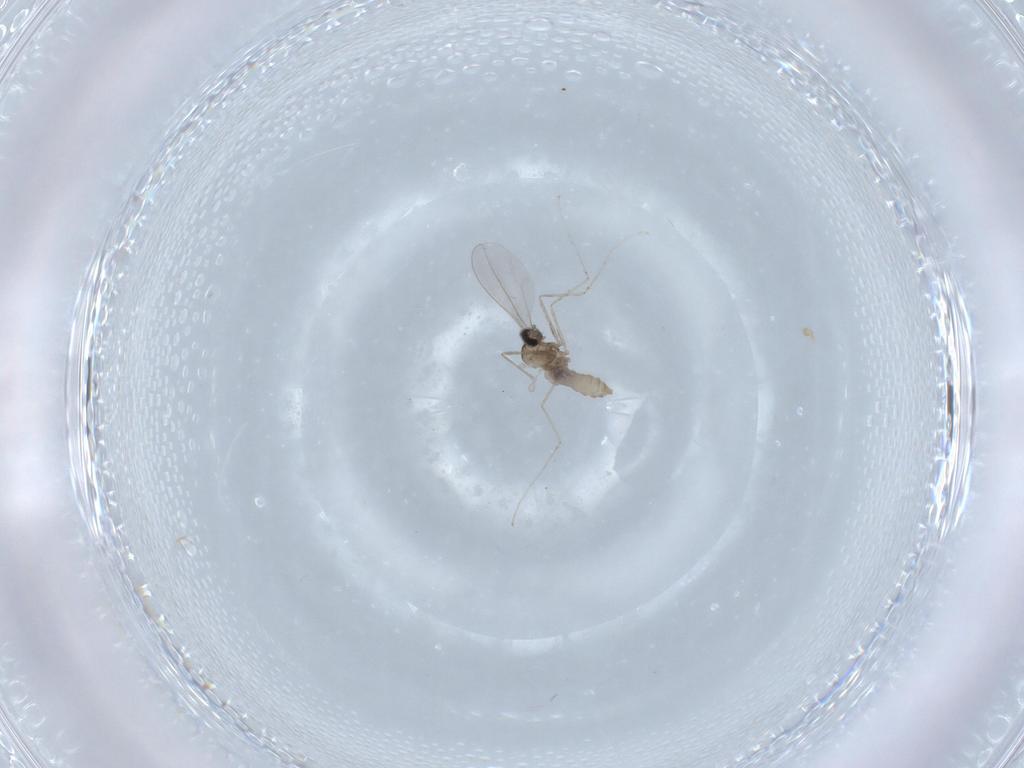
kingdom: Animalia
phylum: Arthropoda
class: Insecta
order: Diptera
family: Cecidomyiidae
